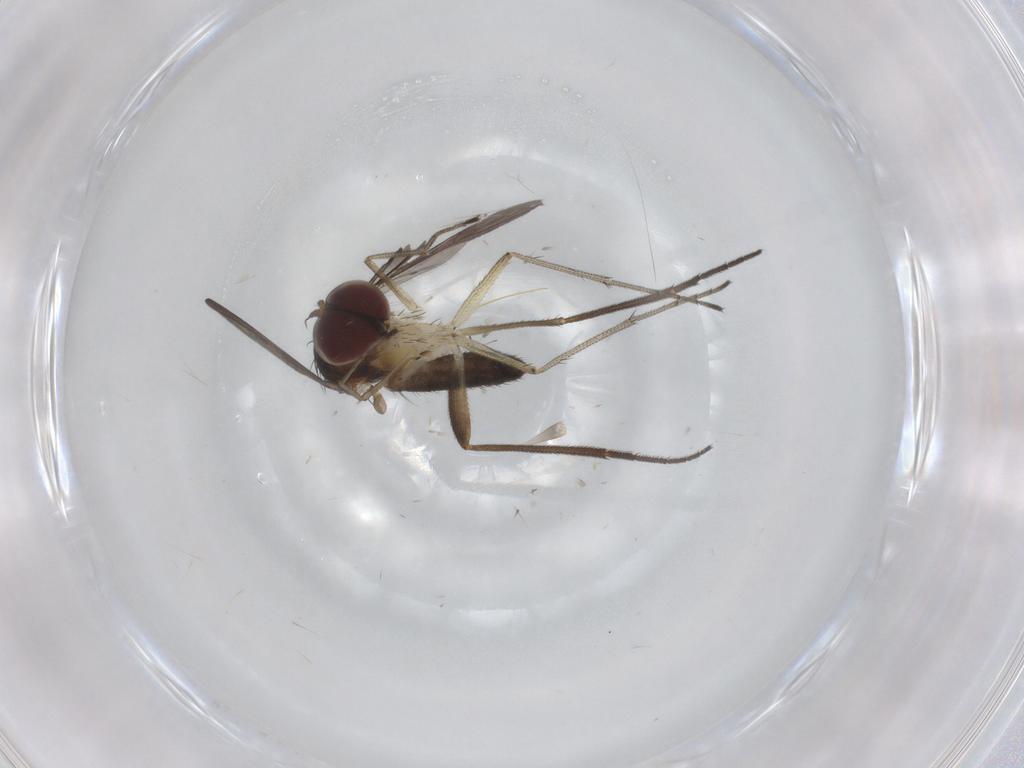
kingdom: Animalia
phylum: Arthropoda
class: Insecta
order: Diptera
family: Dolichopodidae
